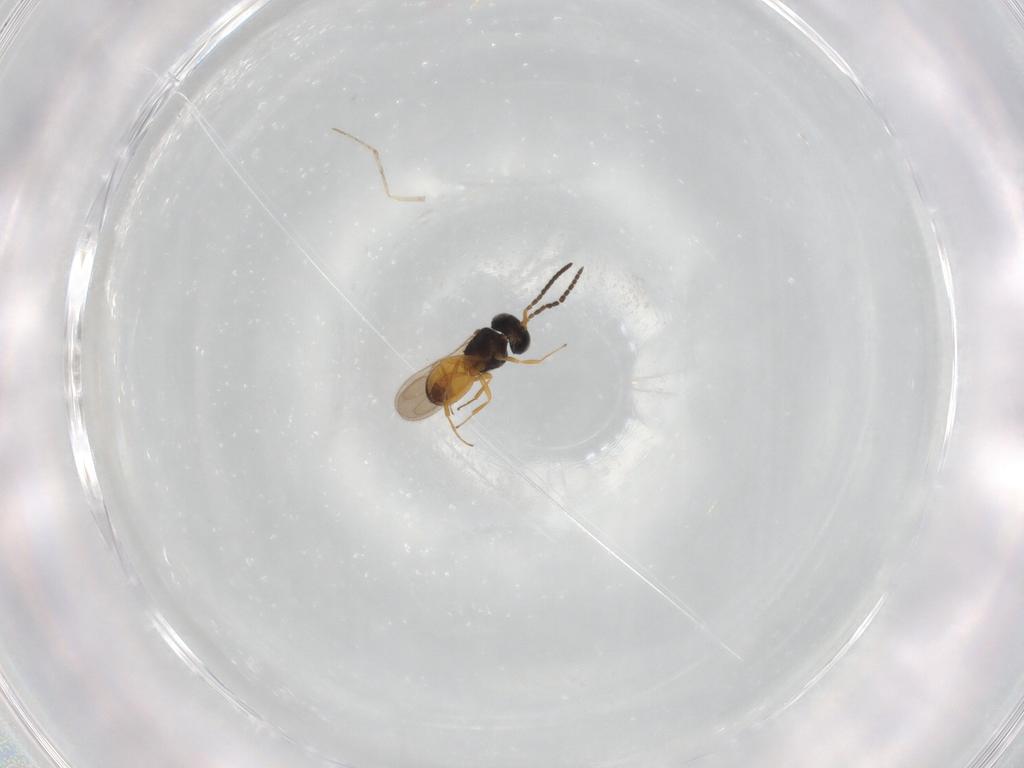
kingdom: Animalia
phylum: Arthropoda
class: Insecta
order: Hymenoptera
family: Scelionidae
